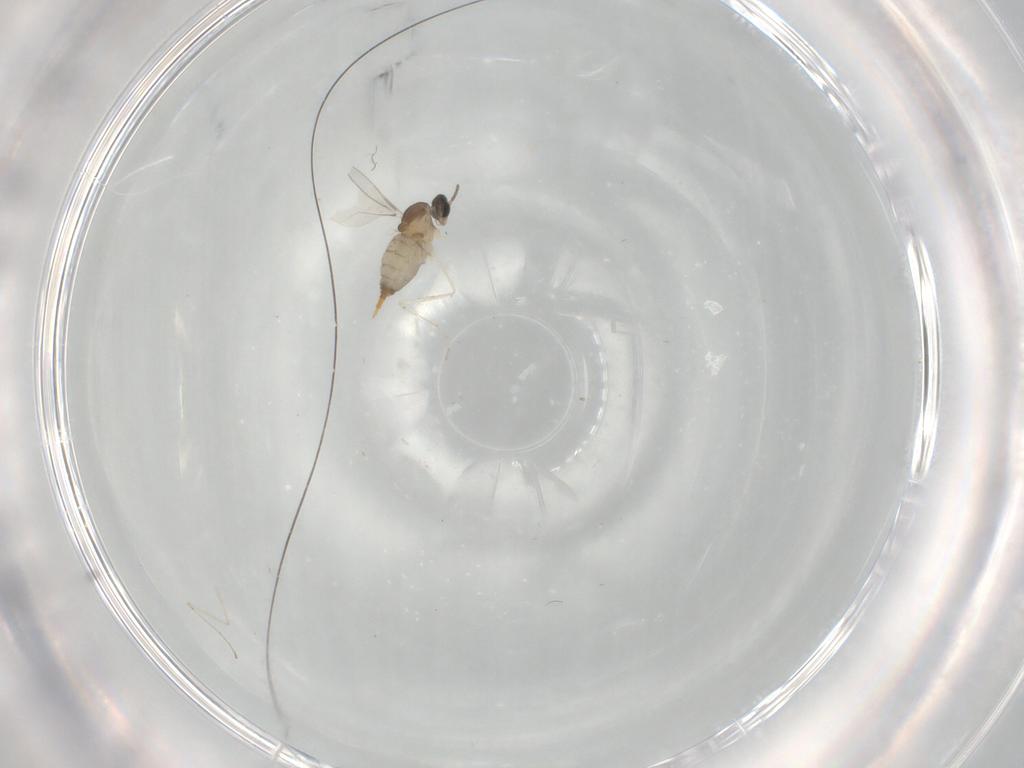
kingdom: Animalia
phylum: Arthropoda
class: Insecta
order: Diptera
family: Cecidomyiidae
